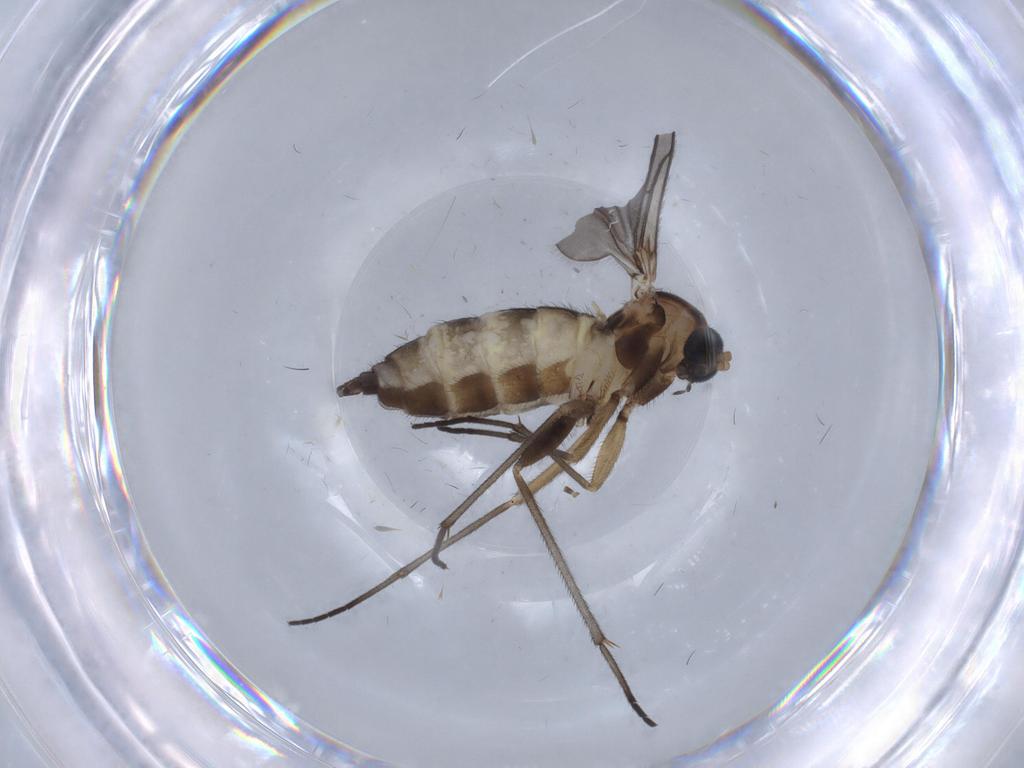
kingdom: Animalia
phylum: Arthropoda
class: Insecta
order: Diptera
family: Sciaridae
